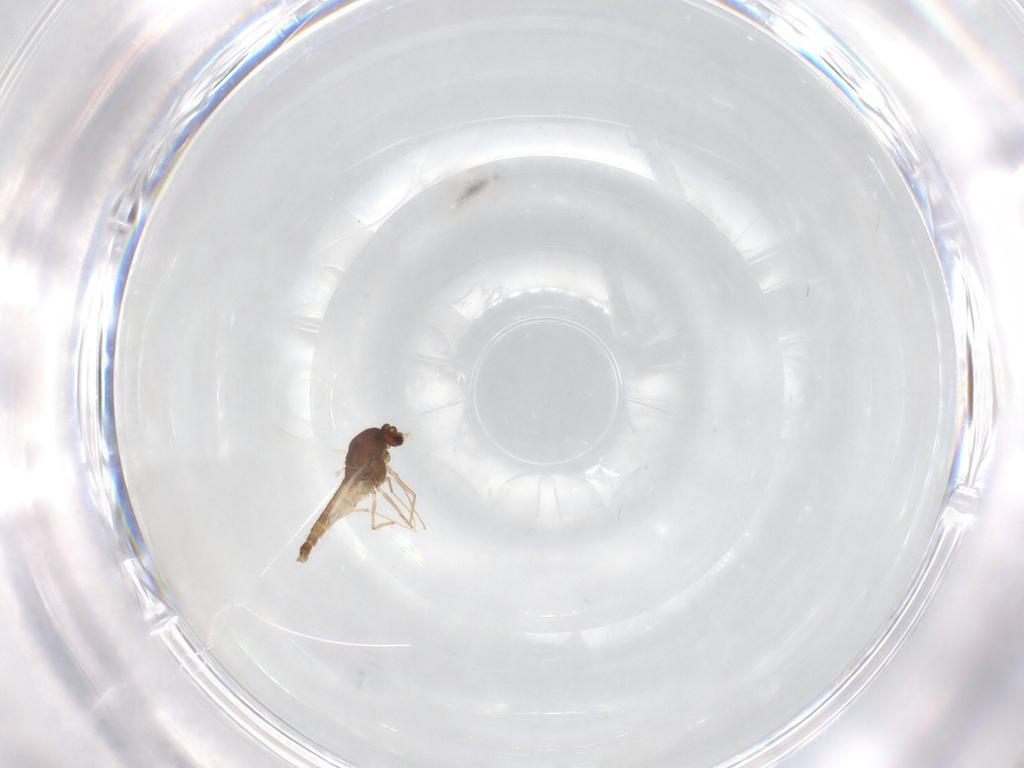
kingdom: Animalia
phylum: Arthropoda
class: Insecta
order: Diptera
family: Chironomidae
